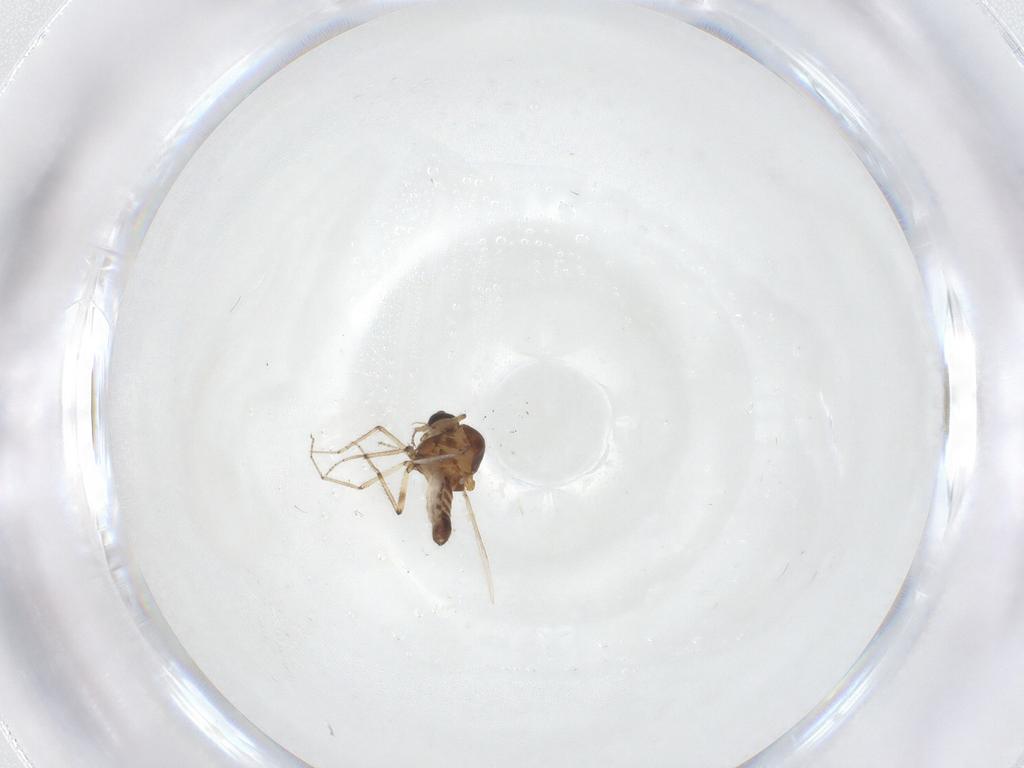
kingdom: Animalia
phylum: Arthropoda
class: Insecta
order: Diptera
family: Ceratopogonidae
